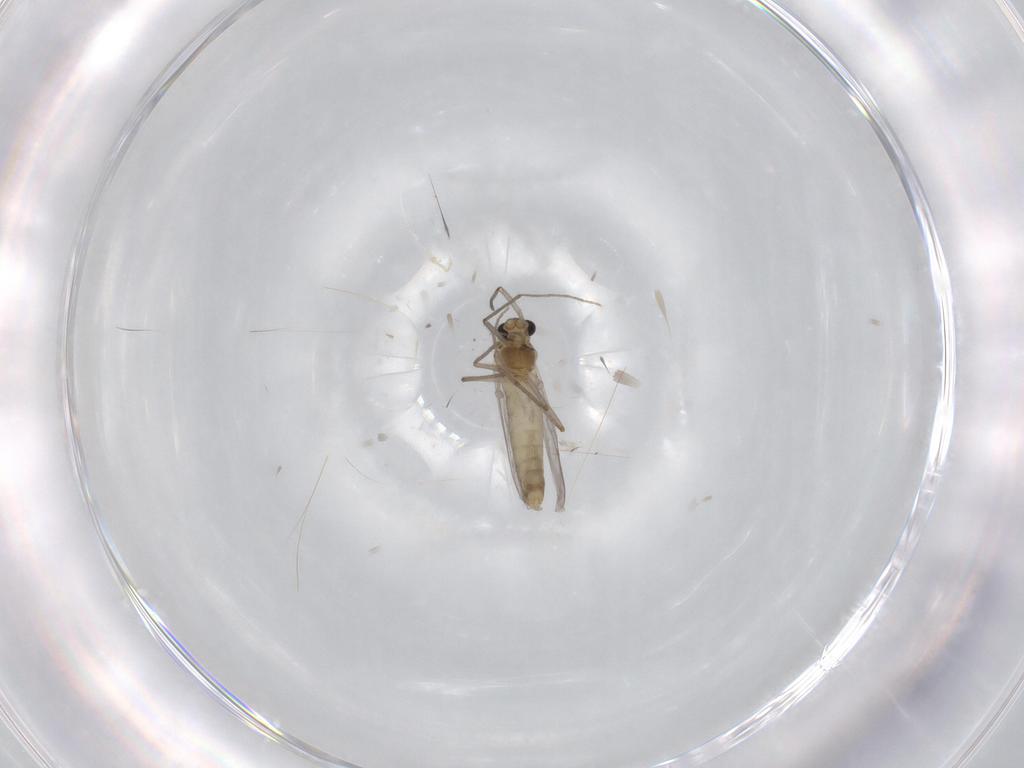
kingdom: Animalia
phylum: Arthropoda
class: Insecta
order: Diptera
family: Chironomidae
